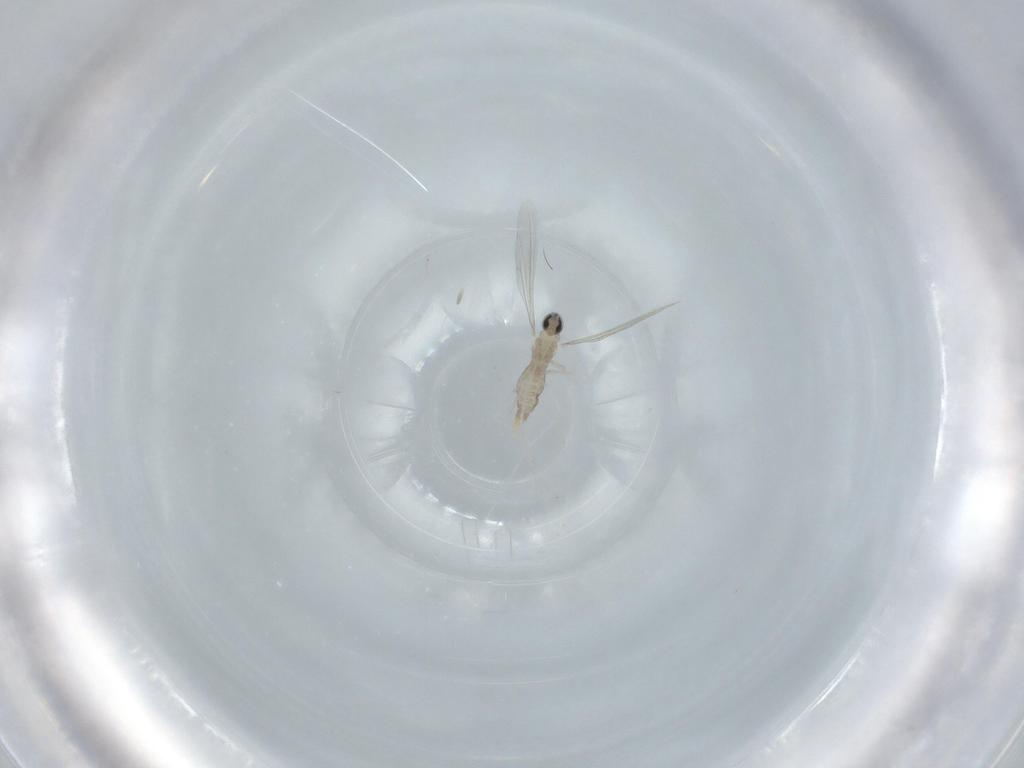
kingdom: Animalia
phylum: Arthropoda
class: Insecta
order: Diptera
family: Cecidomyiidae
